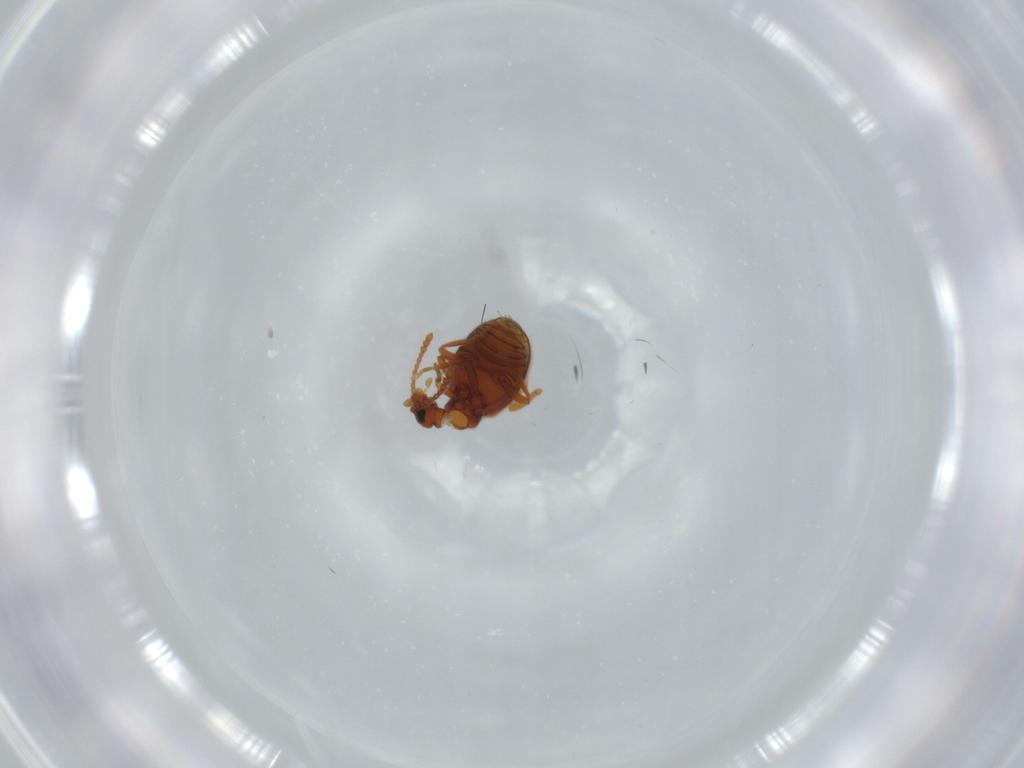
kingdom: Animalia
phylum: Arthropoda
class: Insecta
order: Coleoptera
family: Aderidae
